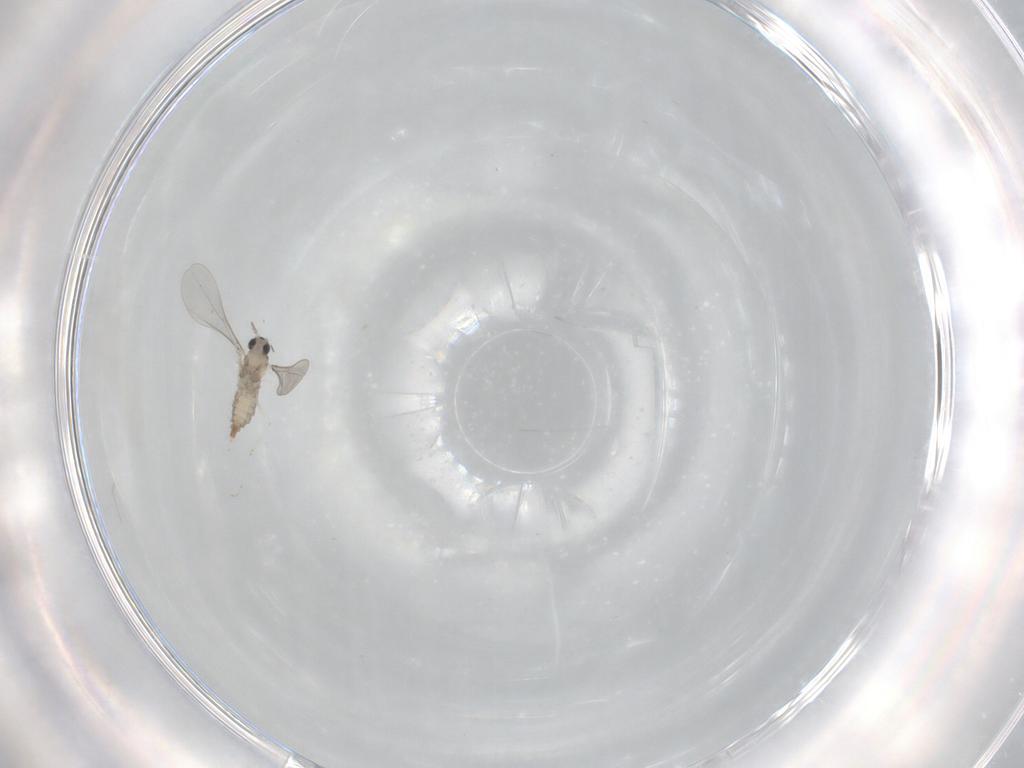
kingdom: Animalia
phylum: Arthropoda
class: Insecta
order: Diptera
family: Cecidomyiidae
